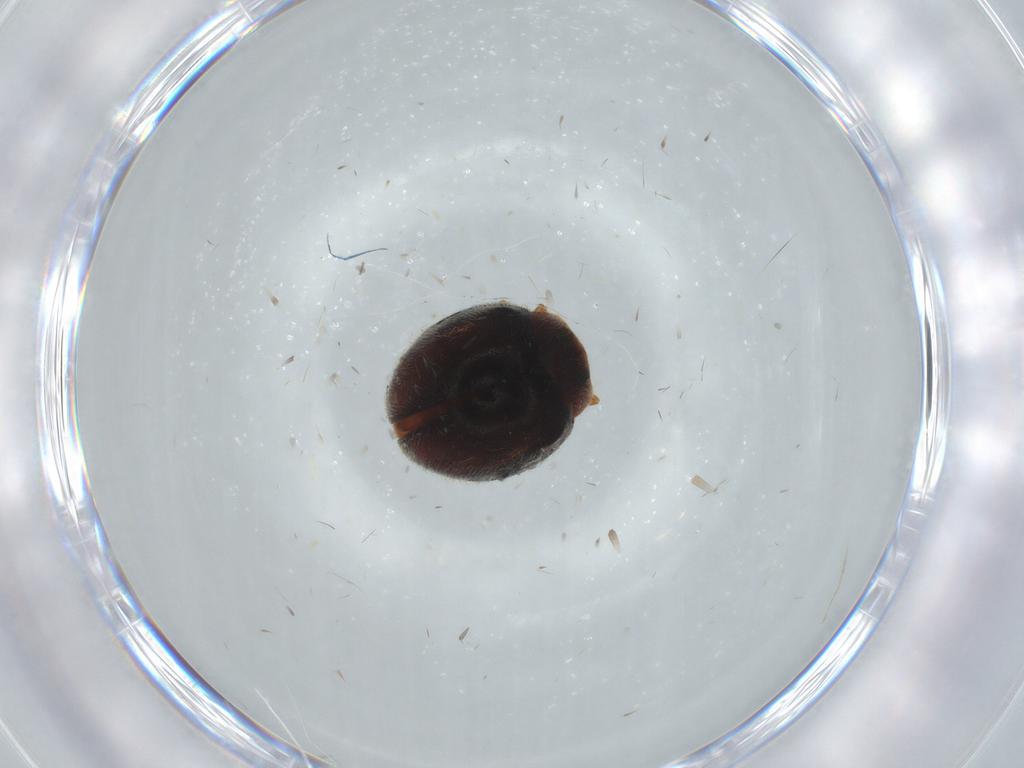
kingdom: Animalia
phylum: Arthropoda
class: Insecta
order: Coleoptera
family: Coccinellidae
